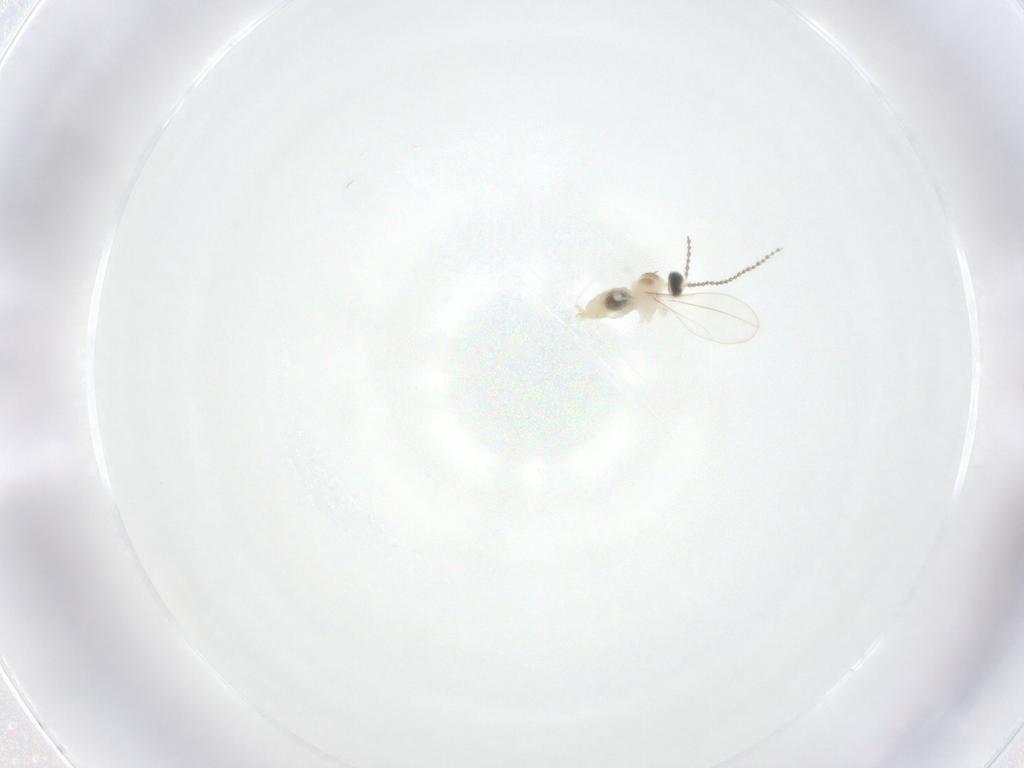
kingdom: Animalia
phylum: Arthropoda
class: Insecta
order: Diptera
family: Cecidomyiidae
